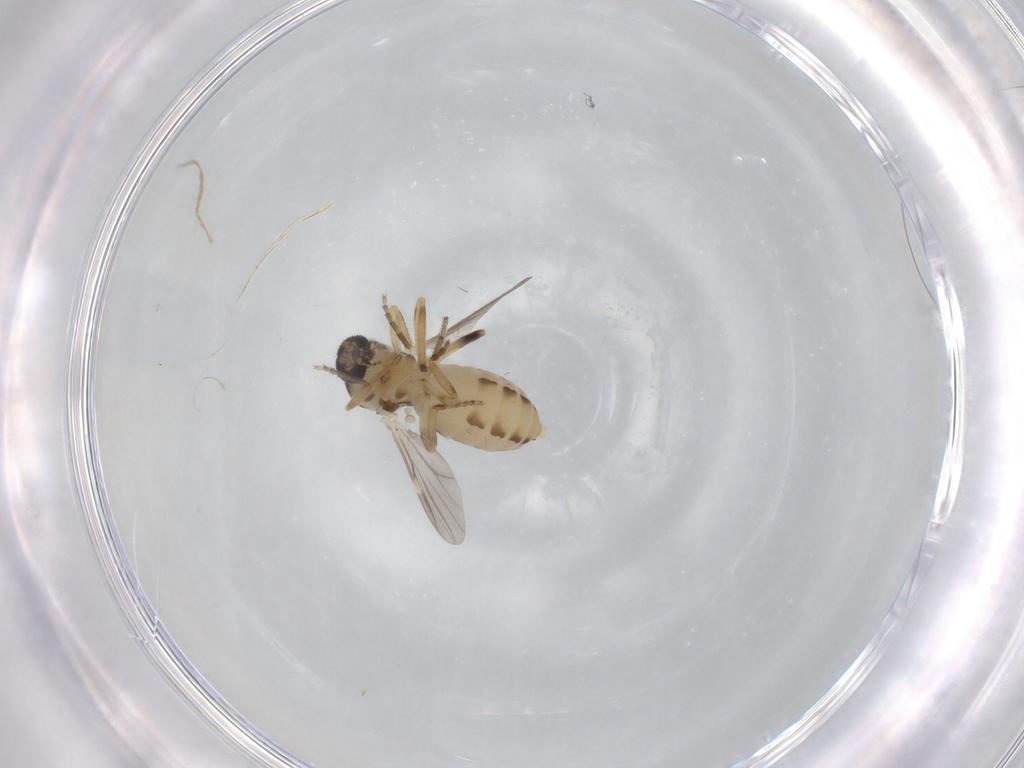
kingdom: Animalia
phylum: Arthropoda
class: Insecta
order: Diptera
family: Ceratopogonidae
